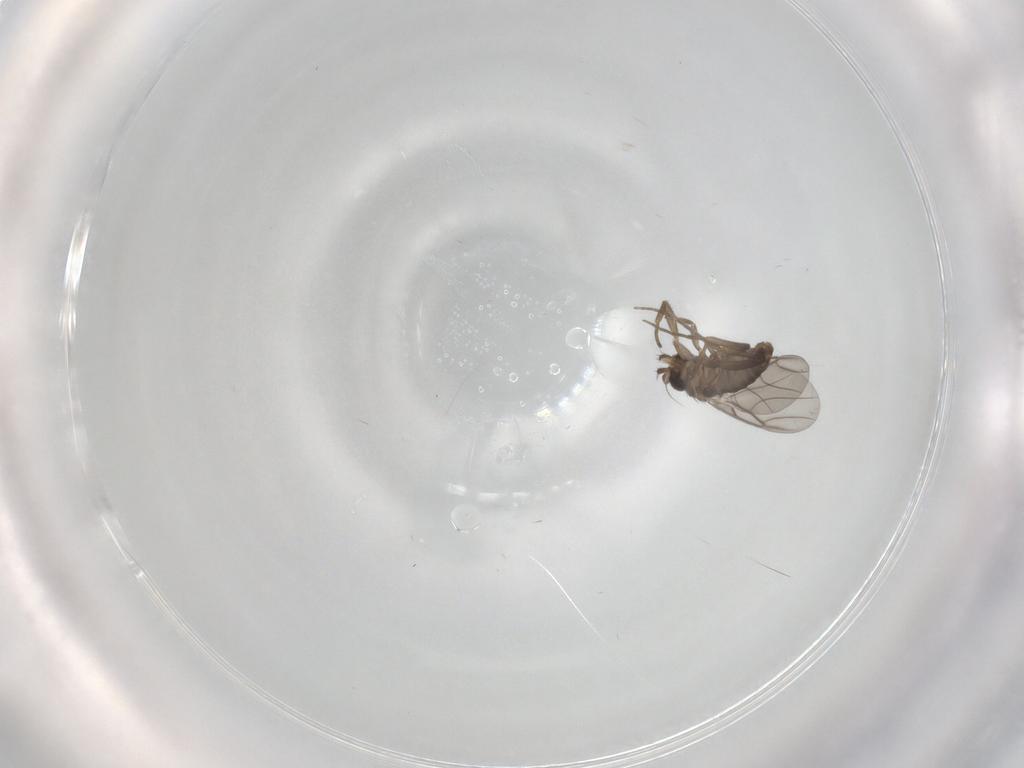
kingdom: Animalia
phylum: Arthropoda
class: Insecta
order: Diptera
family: Phoridae
